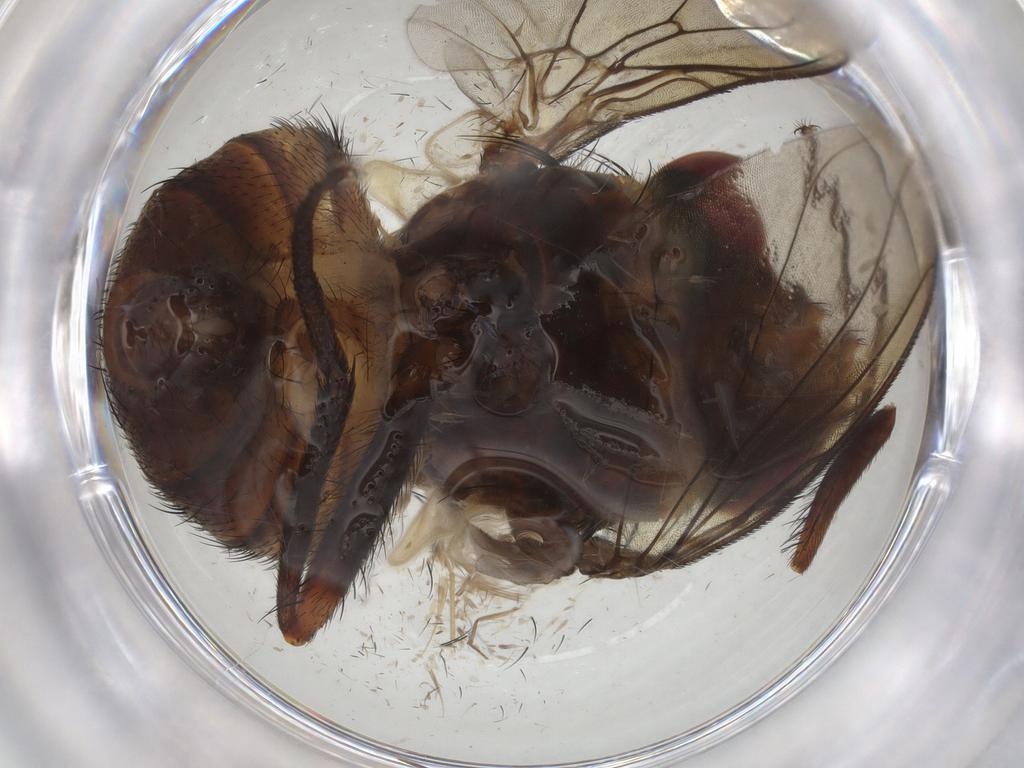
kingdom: Animalia
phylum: Arthropoda
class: Insecta
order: Diptera
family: Muscidae
